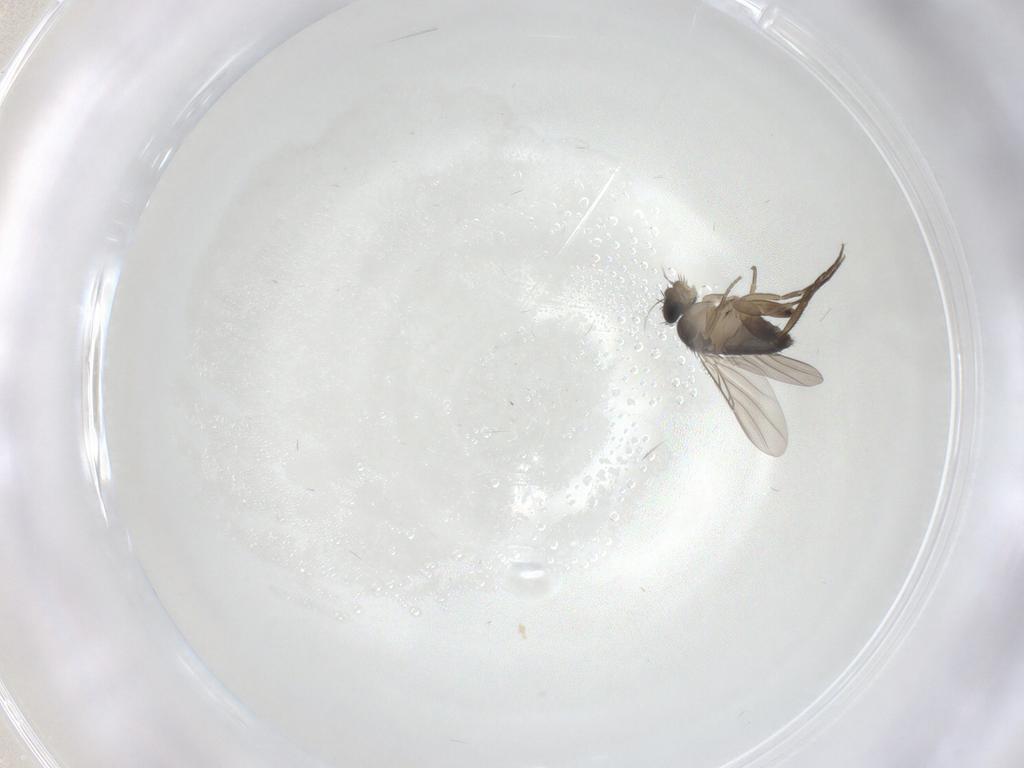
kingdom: Animalia
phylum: Arthropoda
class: Insecta
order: Diptera
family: Phoridae
